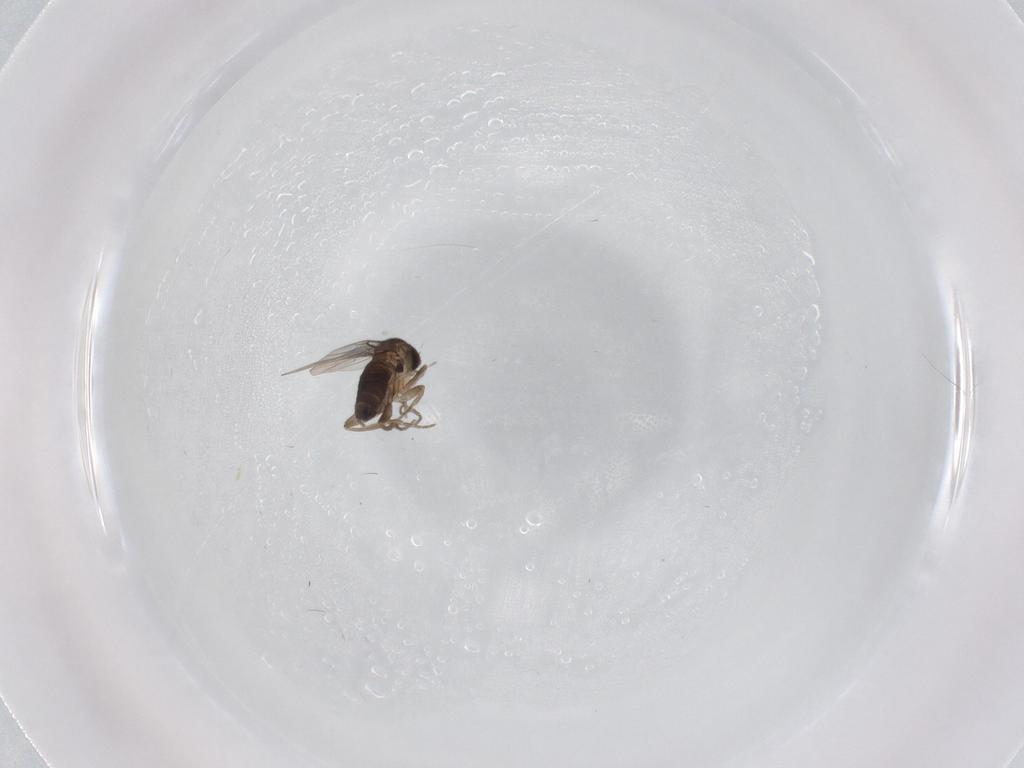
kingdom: Animalia
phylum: Arthropoda
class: Insecta
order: Diptera
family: Phoridae
